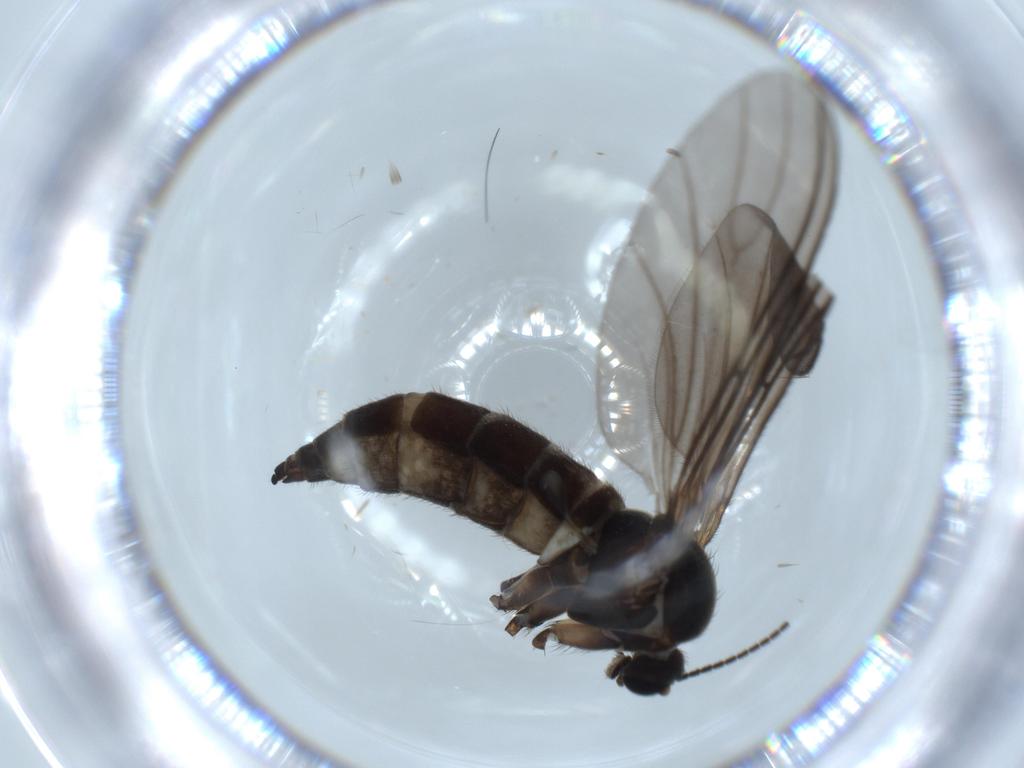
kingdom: Animalia
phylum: Arthropoda
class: Insecta
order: Diptera
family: Sciaridae
